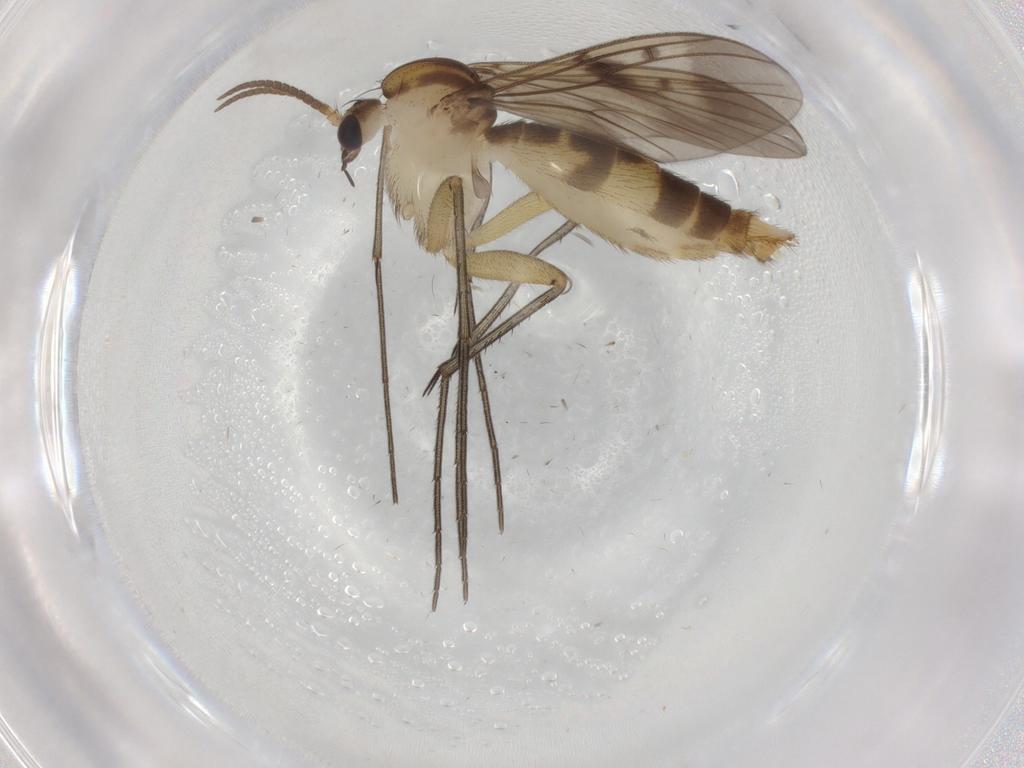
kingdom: Animalia
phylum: Arthropoda
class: Insecta
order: Diptera
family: Mycetophilidae
